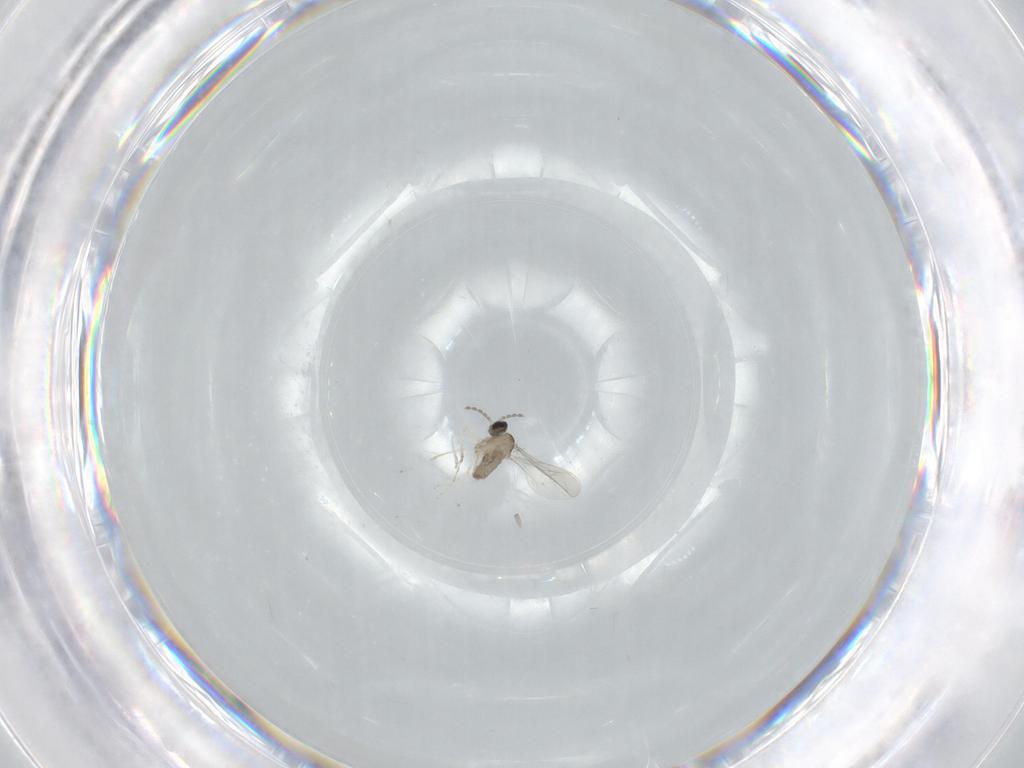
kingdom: Animalia
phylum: Arthropoda
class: Insecta
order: Diptera
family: Cecidomyiidae
